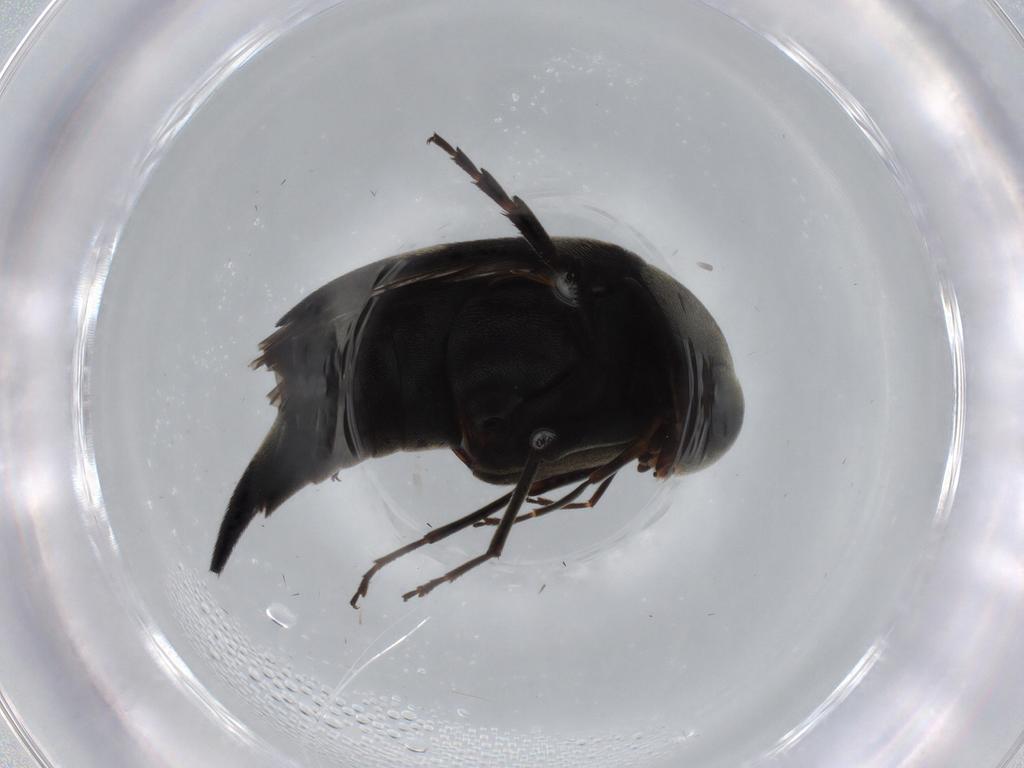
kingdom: Animalia
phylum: Arthropoda
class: Insecta
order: Coleoptera
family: Mordellidae
